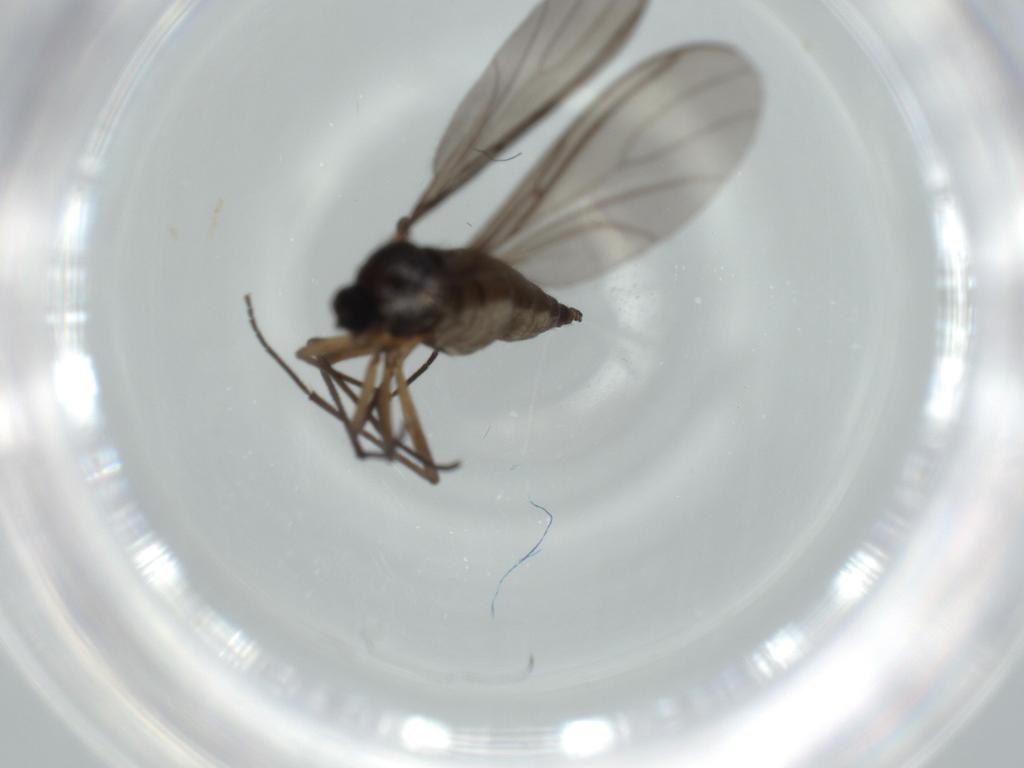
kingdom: Animalia
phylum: Arthropoda
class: Insecta
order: Diptera
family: Sciaridae
